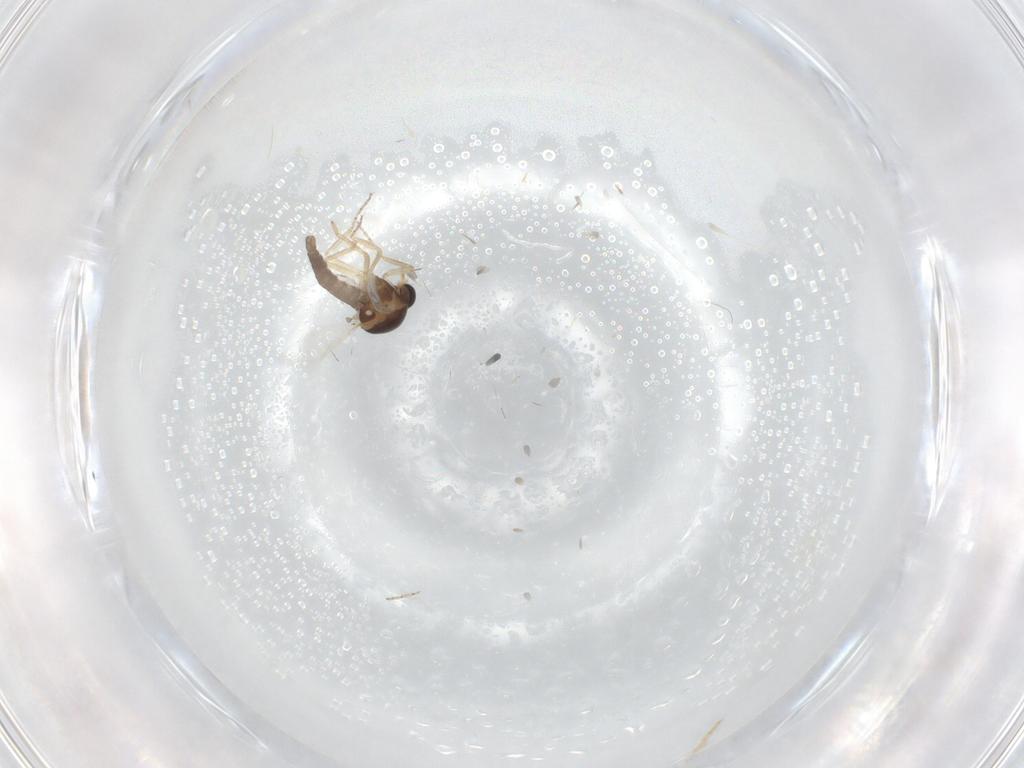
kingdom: Animalia
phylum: Arthropoda
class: Insecta
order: Diptera
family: Ceratopogonidae
